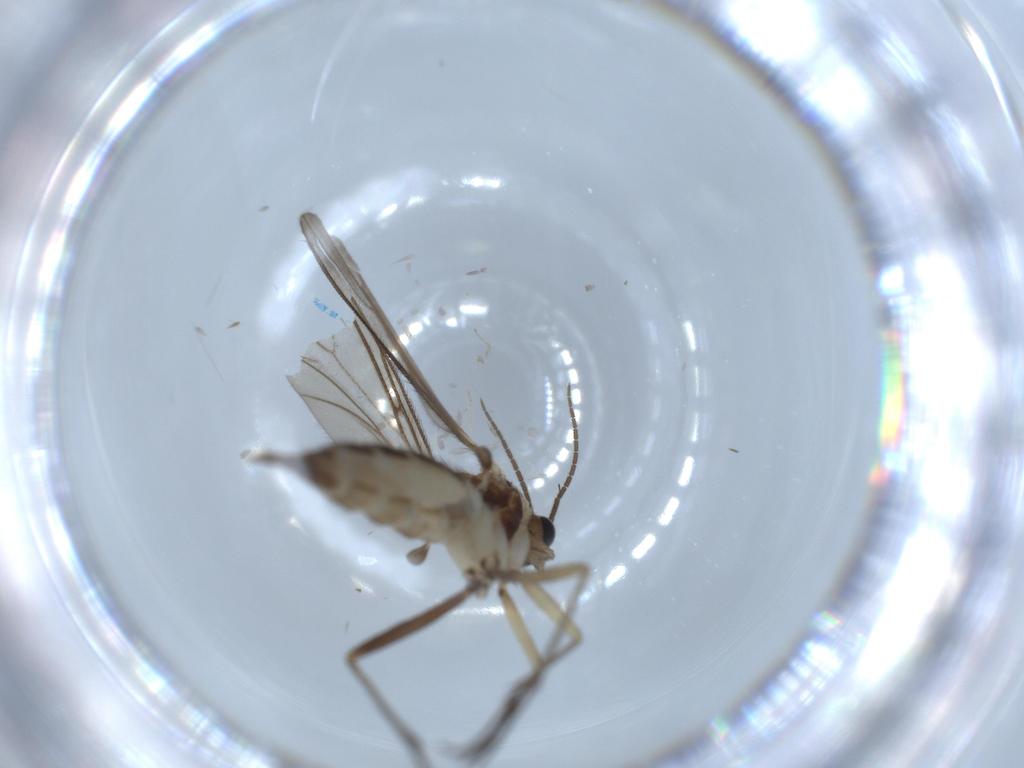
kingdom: Animalia
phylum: Arthropoda
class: Insecta
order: Diptera
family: Sciaridae
